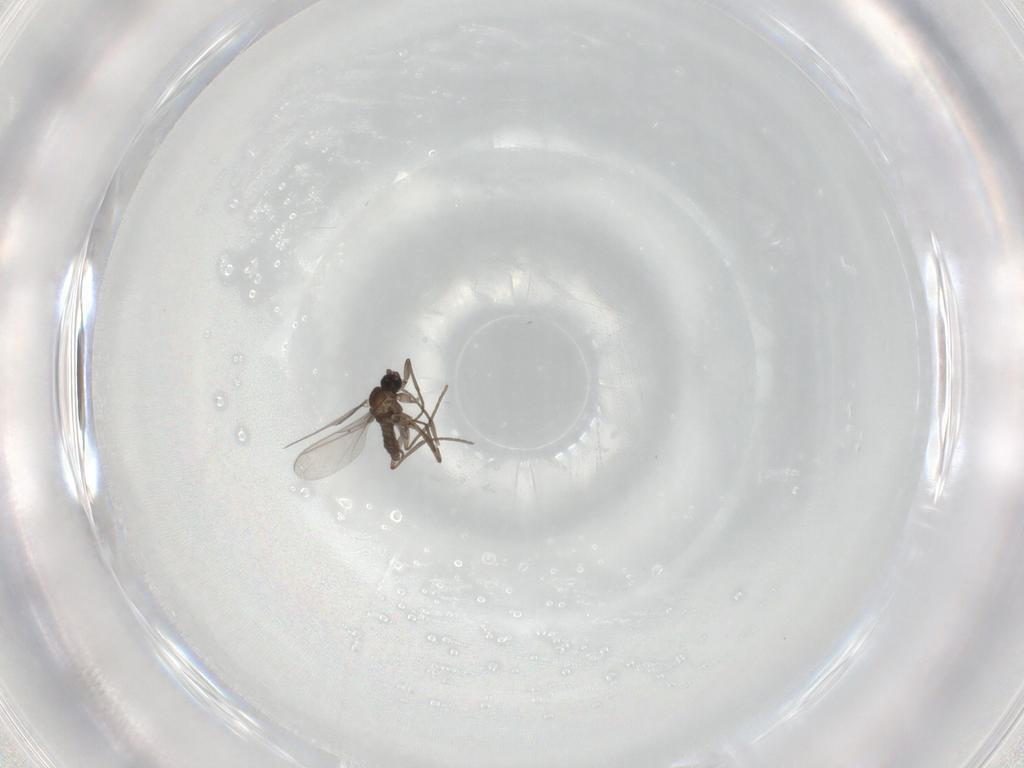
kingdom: Animalia
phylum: Arthropoda
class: Insecta
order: Diptera
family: Sciaridae
